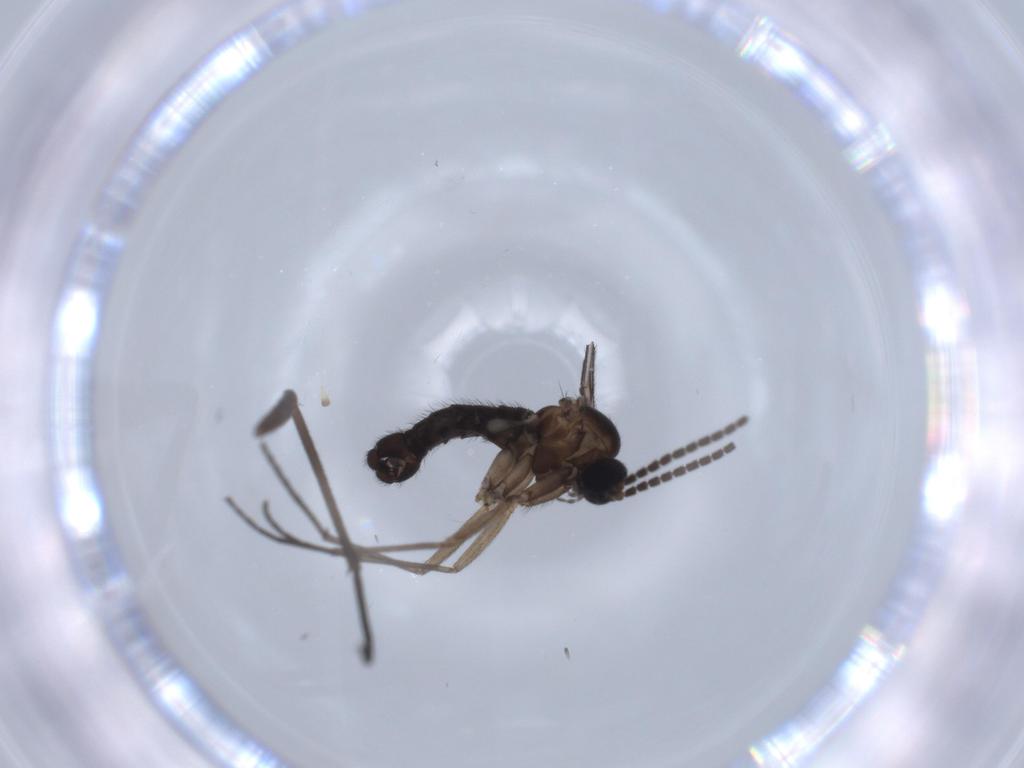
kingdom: Animalia
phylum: Arthropoda
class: Insecta
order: Diptera
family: Sciaridae
